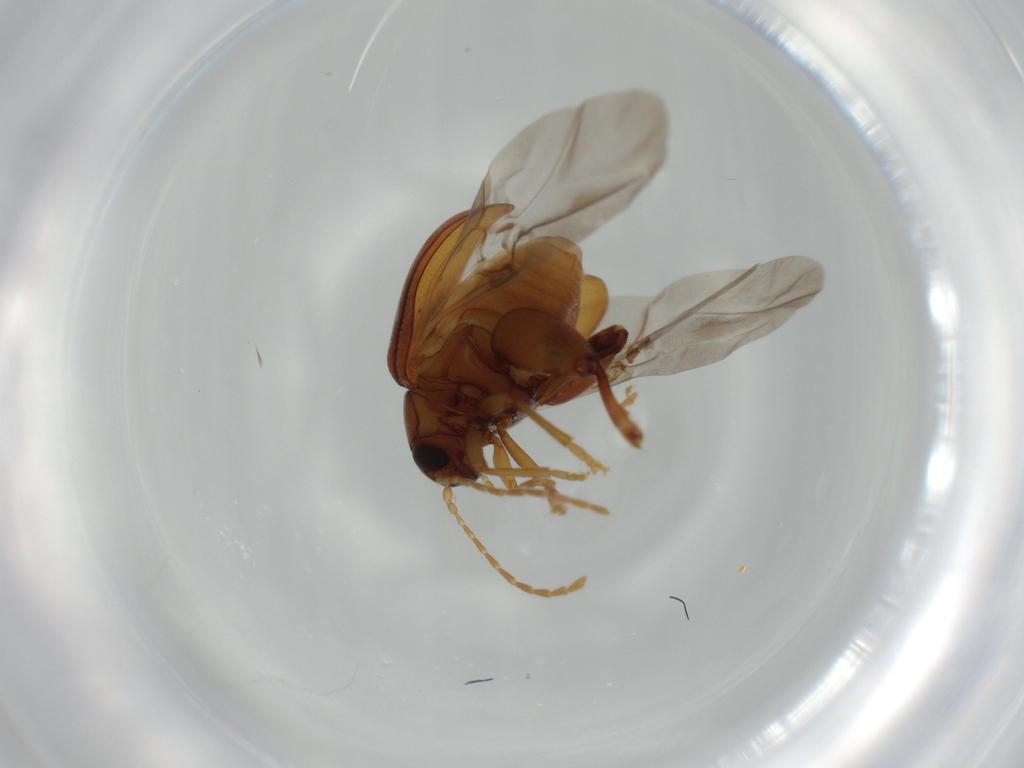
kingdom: Animalia
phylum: Arthropoda
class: Insecta
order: Coleoptera
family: Chrysomelidae
